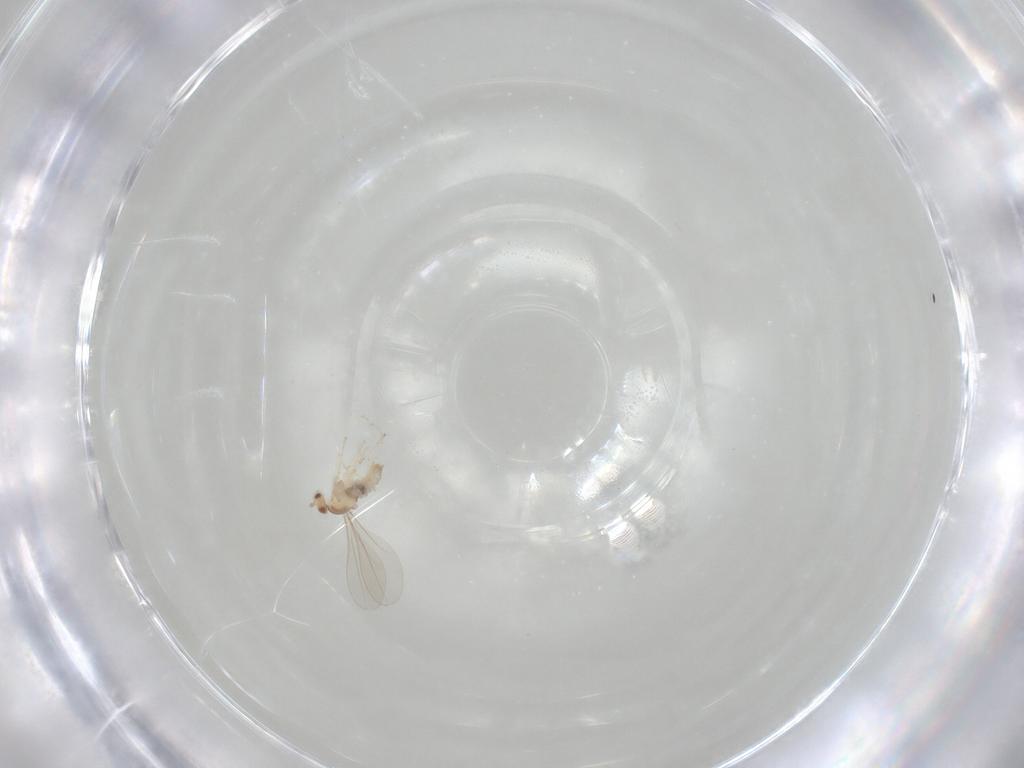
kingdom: Animalia
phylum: Arthropoda
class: Insecta
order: Diptera
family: Cecidomyiidae
